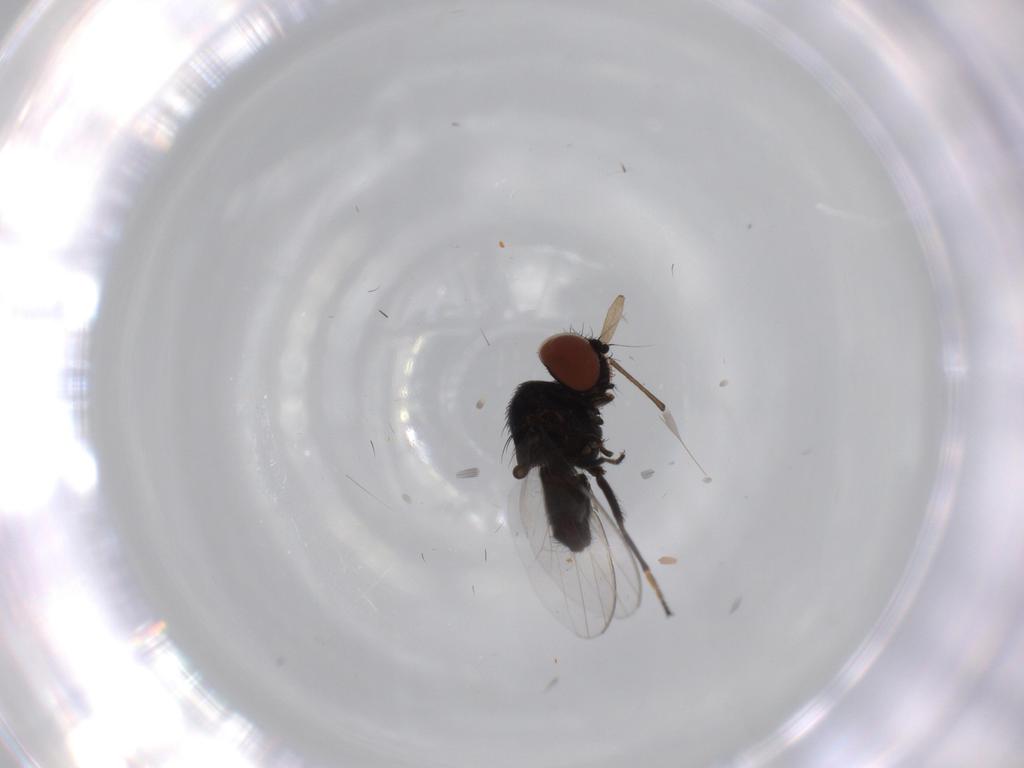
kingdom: Animalia
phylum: Arthropoda
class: Insecta
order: Diptera
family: Milichiidae
